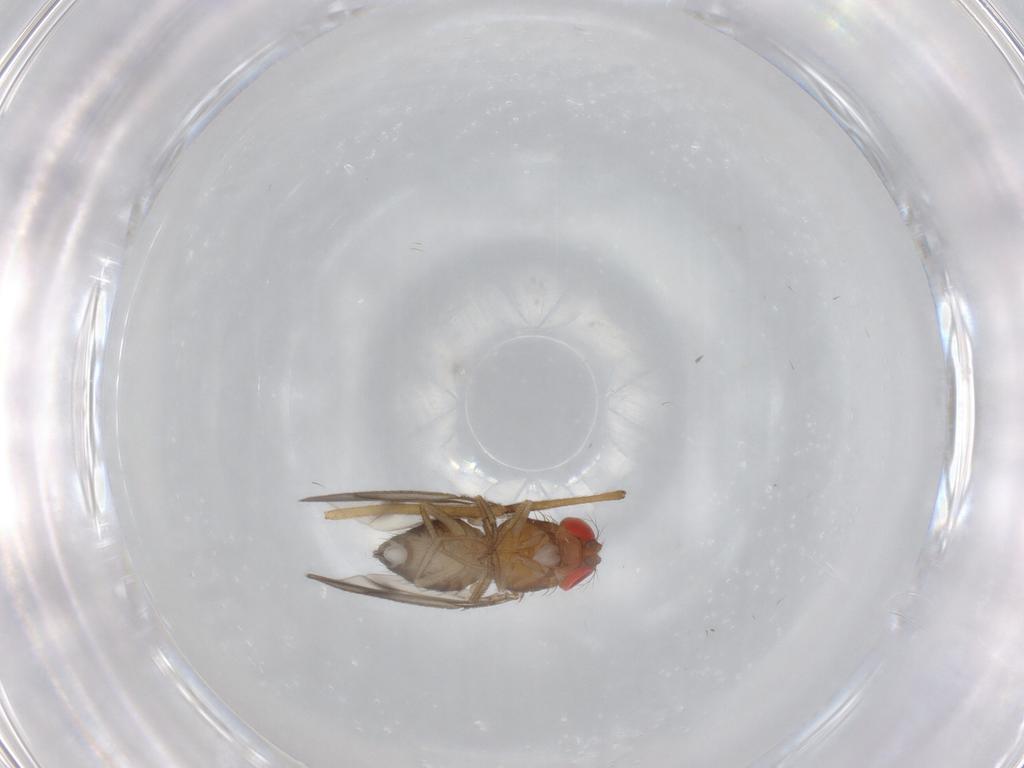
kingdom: Animalia
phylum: Arthropoda
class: Insecta
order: Diptera
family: Drosophilidae
